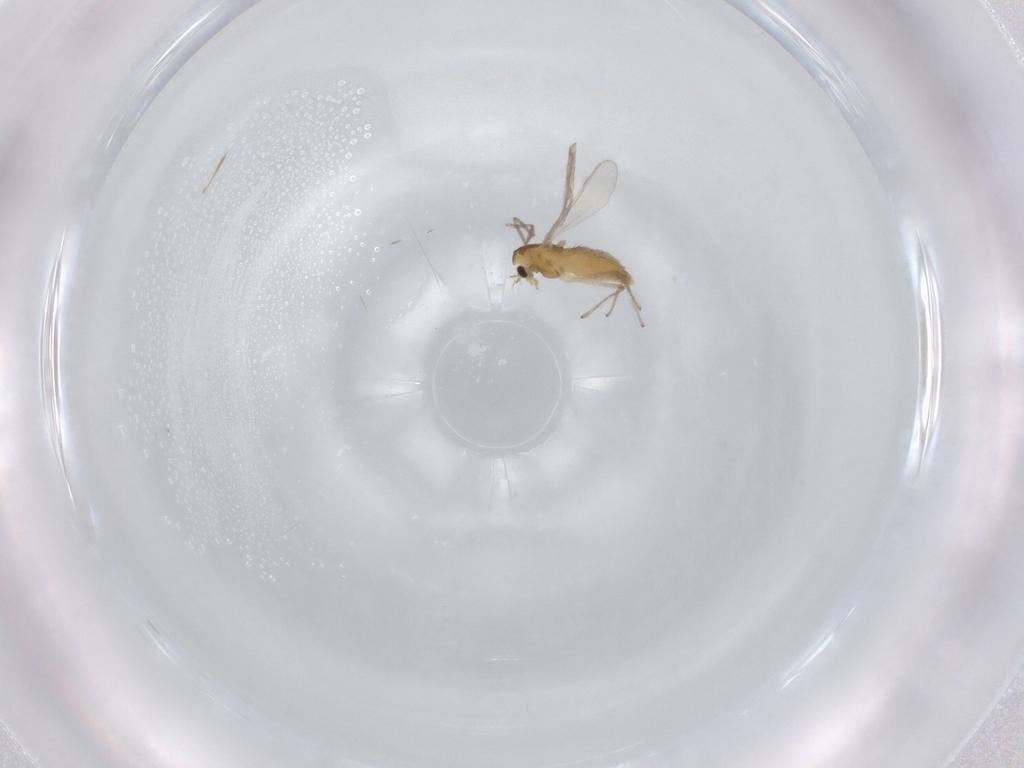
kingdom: Animalia
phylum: Arthropoda
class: Insecta
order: Diptera
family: Chironomidae
